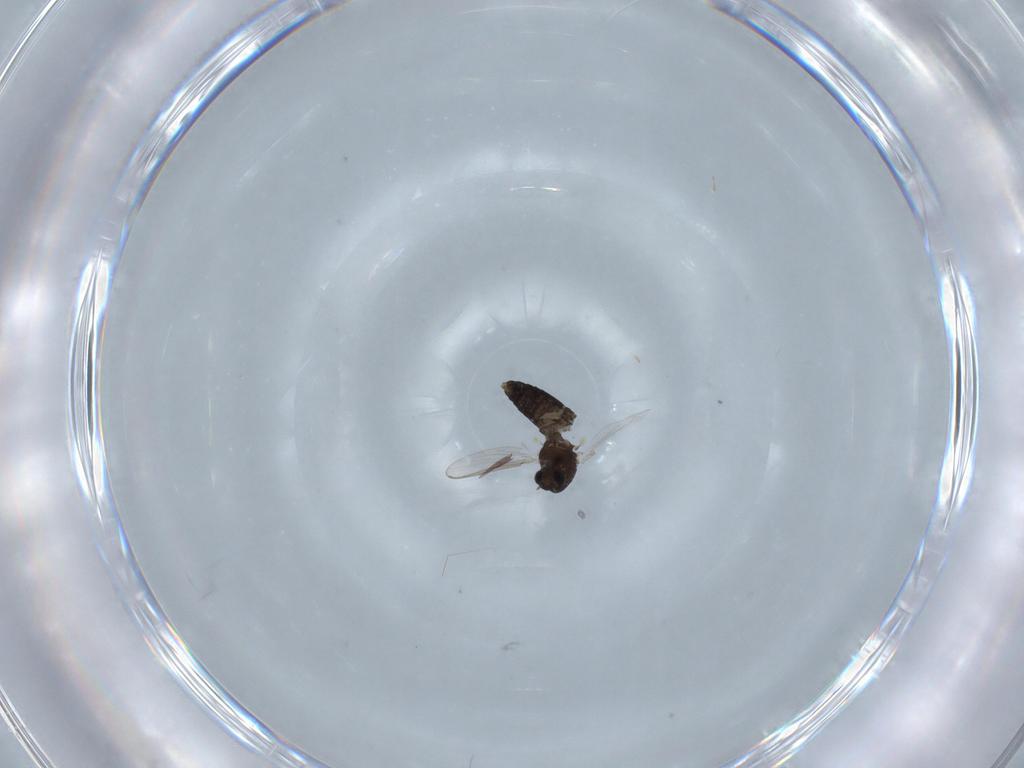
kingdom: Animalia
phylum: Arthropoda
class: Insecta
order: Diptera
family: Chironomidae
